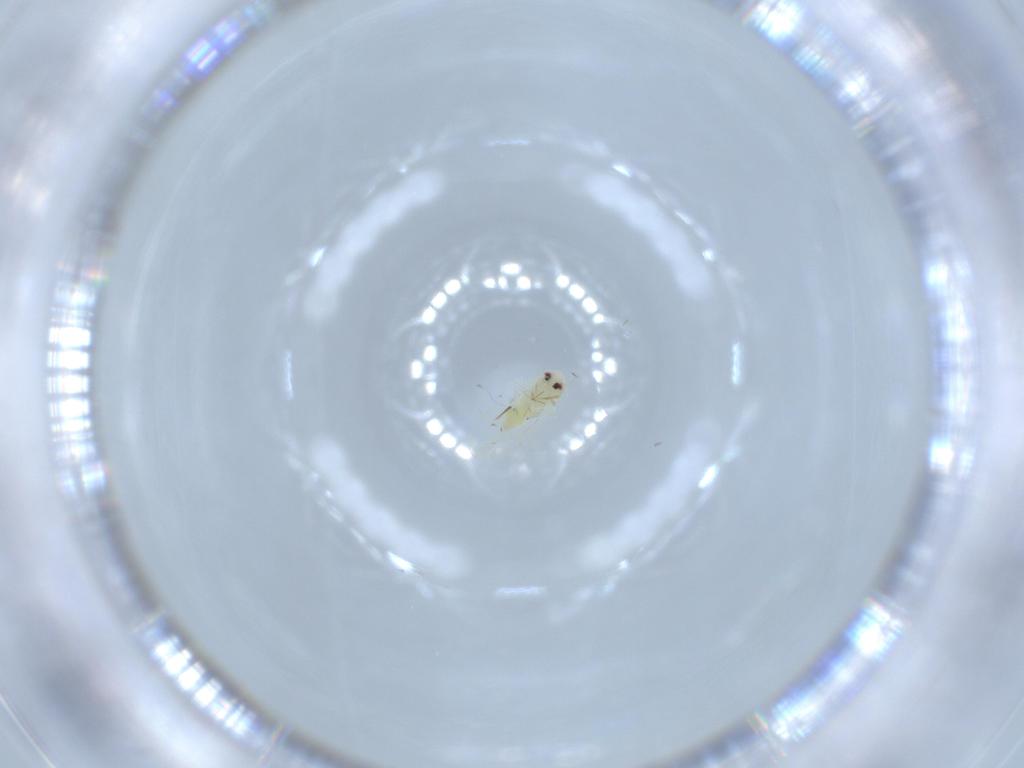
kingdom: Animalia
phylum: Arthropoda
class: Insecta
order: Hemiptera
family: Aleyrodidae
